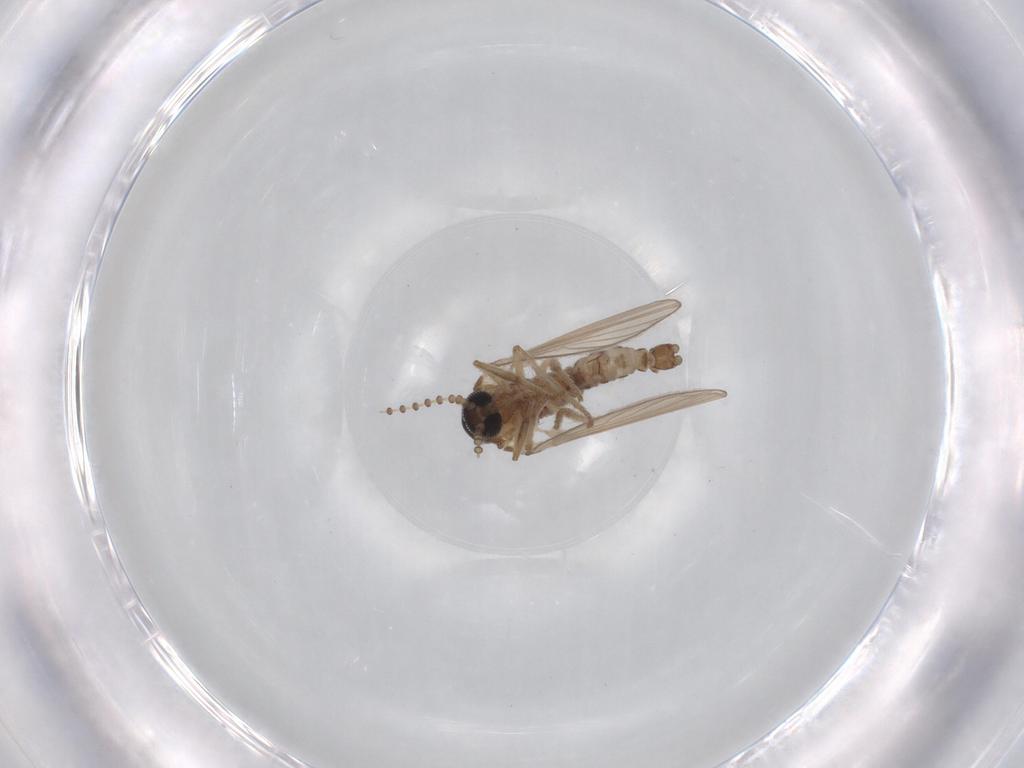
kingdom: Animalia
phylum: Arthropoda
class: Insecta
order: Diptera
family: Psychodidae
